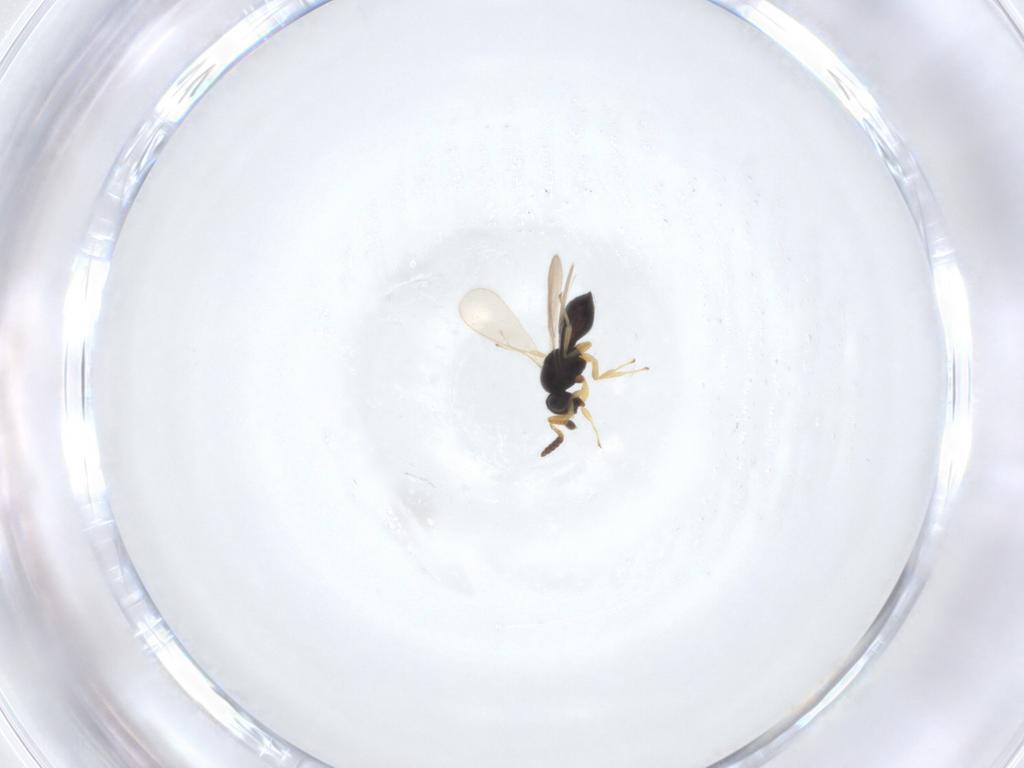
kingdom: Animalia
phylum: Arthropoda
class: Insecta
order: Hymenoptera
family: Scelionidae
